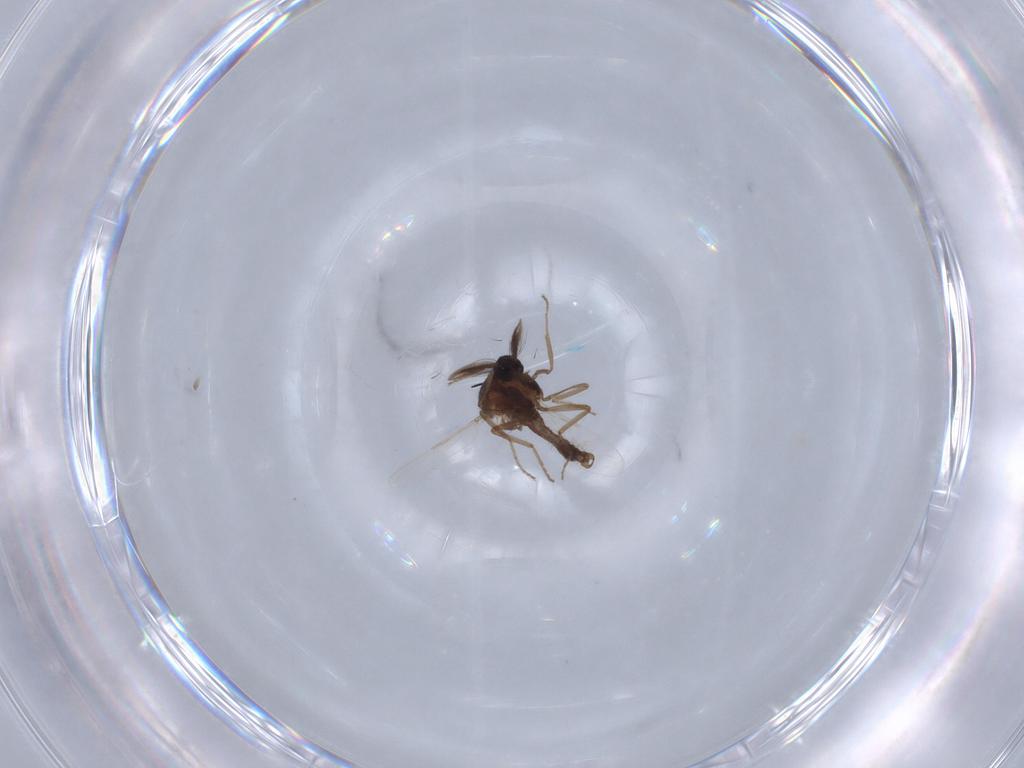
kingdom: Animalia
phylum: Arthropoda
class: Insecta
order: Diptera
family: Ceratopogonidae
